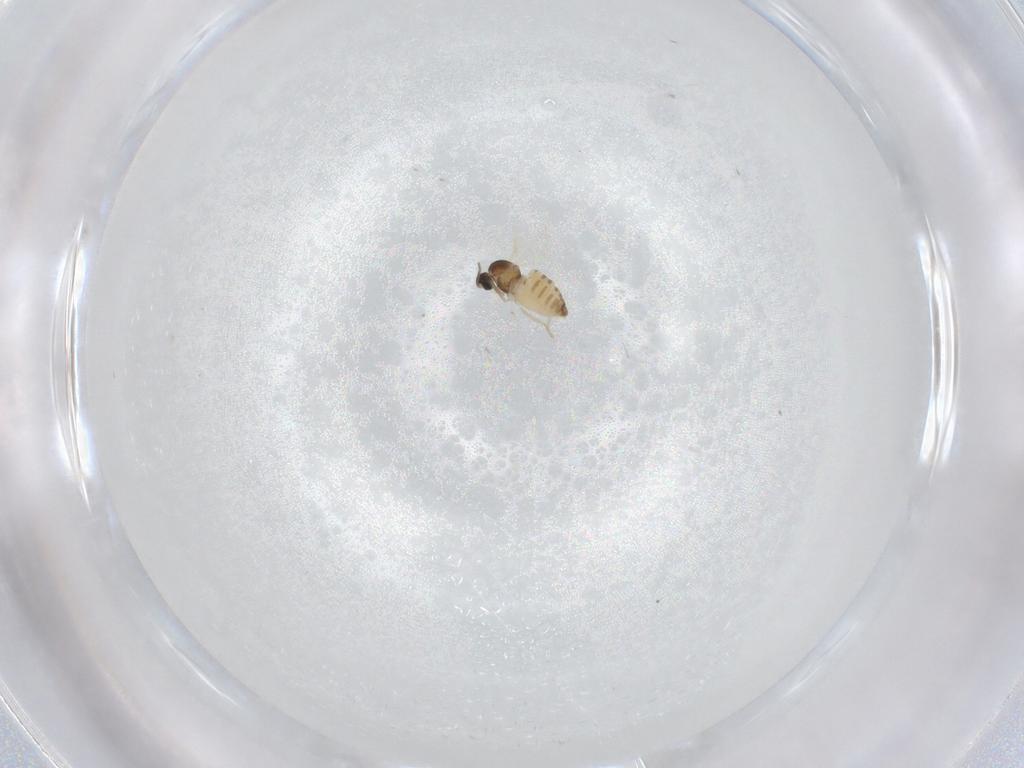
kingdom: Animalia
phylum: Arthropoda
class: Insecta
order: Diptera
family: Cecidomyiidae
